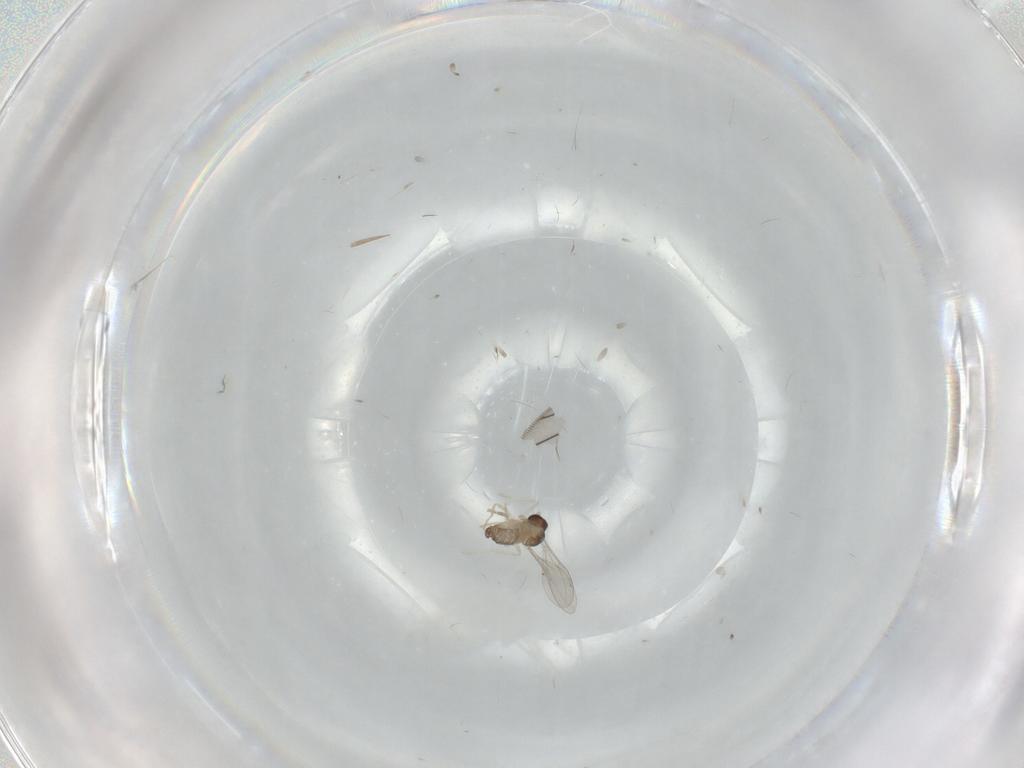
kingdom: Animalia
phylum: Arthropoda
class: Insecta
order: Diptera
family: Cecidomyiidae
